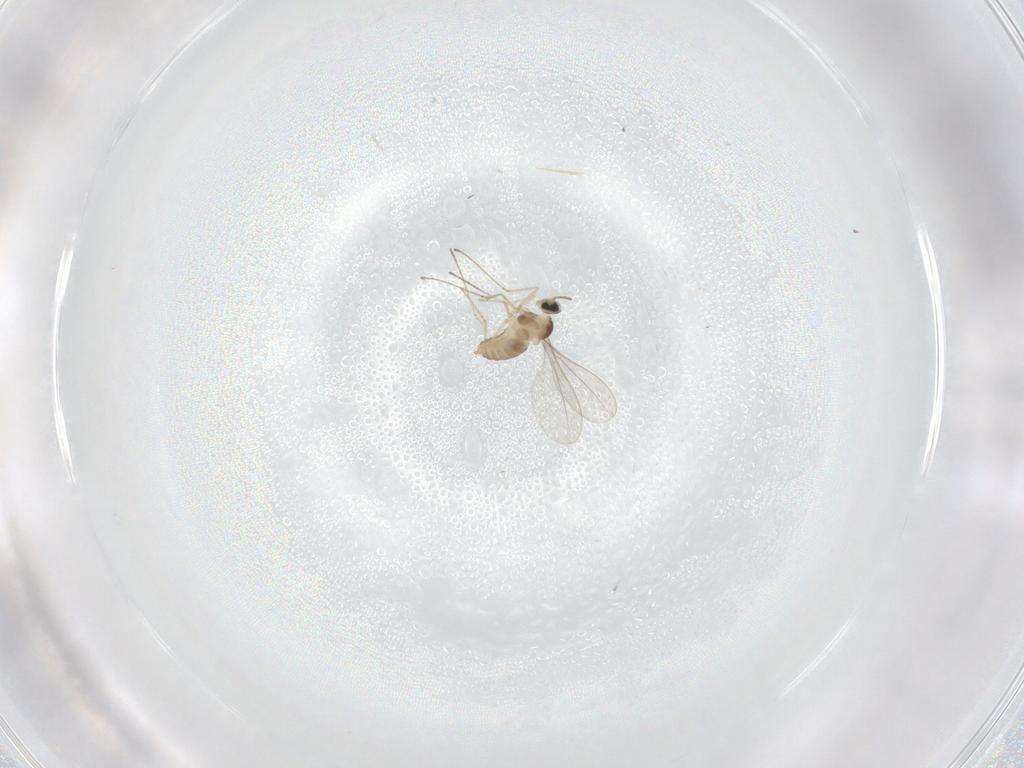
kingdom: Animalia
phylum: Arthropoda
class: Insecta
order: Diptera
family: Cecidomyiidae
